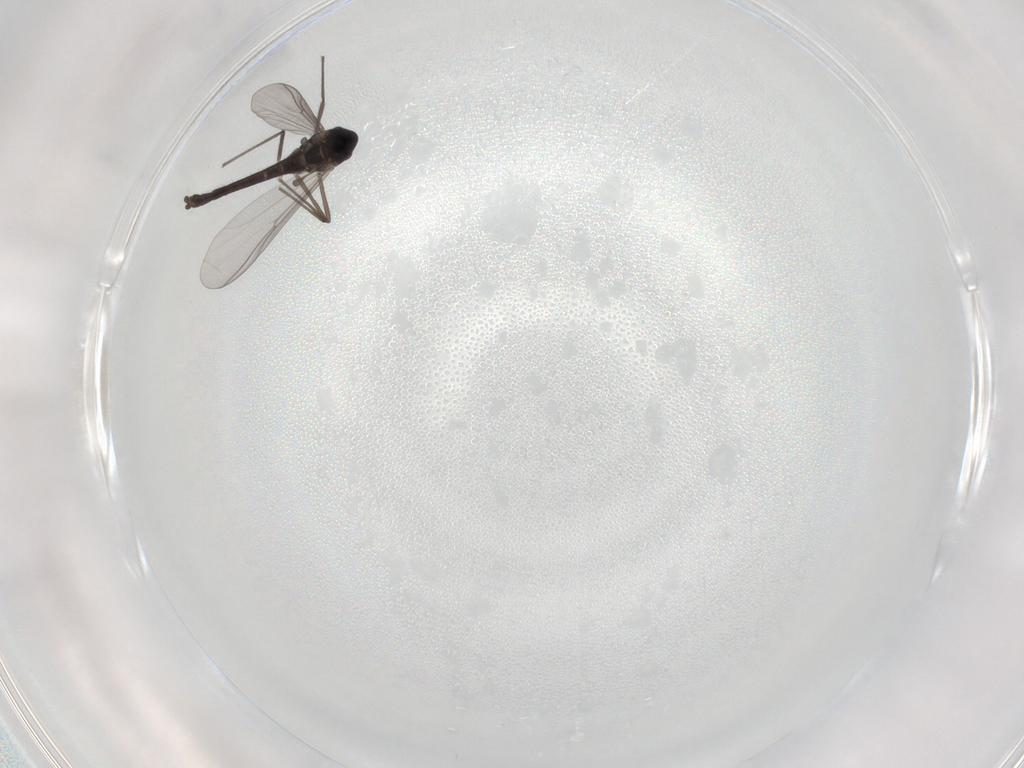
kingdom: Animalia
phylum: Arthropoda
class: Insecta
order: Diptera
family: Chironomidae
